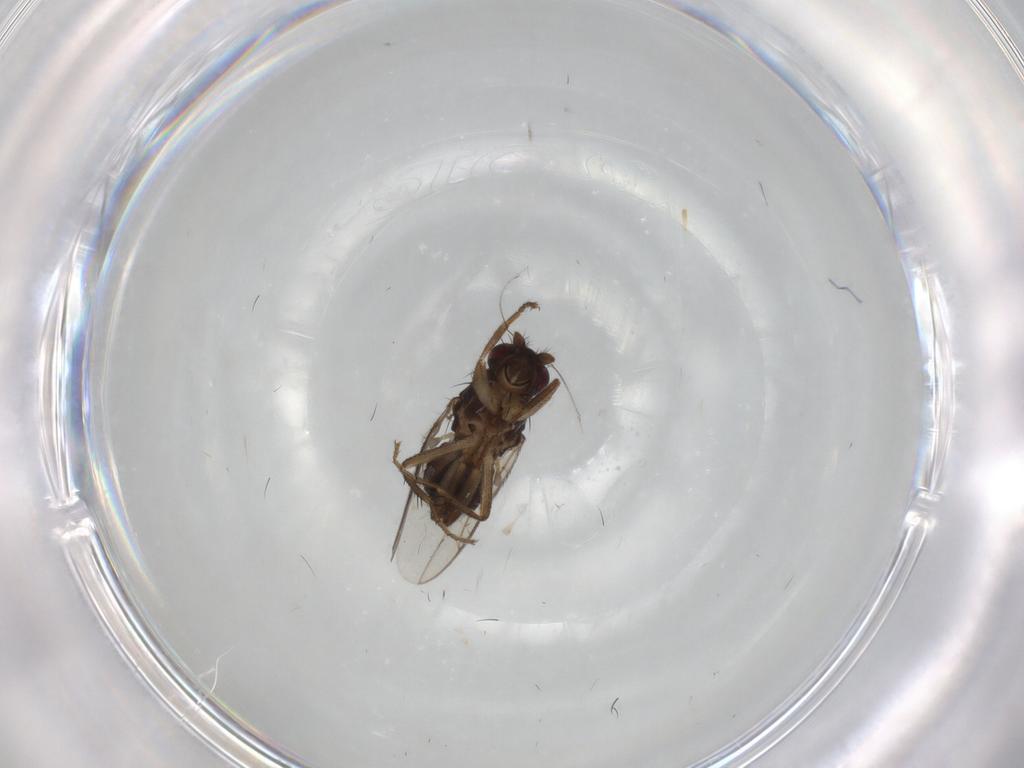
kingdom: Animalia
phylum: Arthropoda
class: Insecta
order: Diptera
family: Sphaeroceridae
